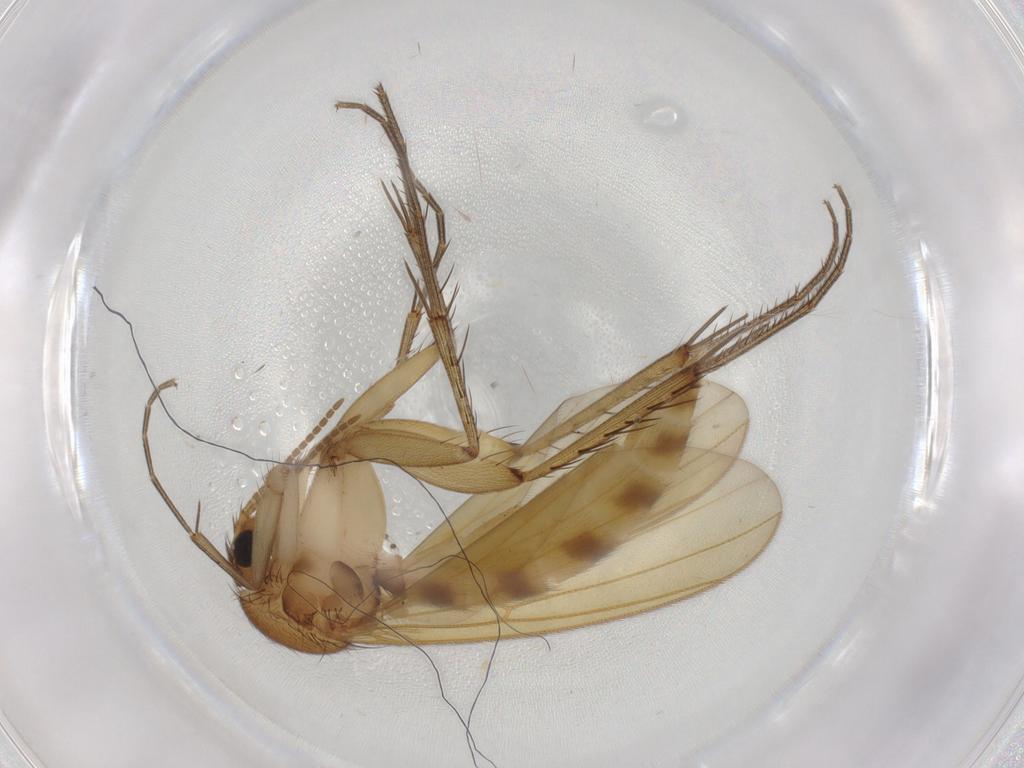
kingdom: Animalia
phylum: Arthropoda
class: Insecta
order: Diptera
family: Mycetophilidae
